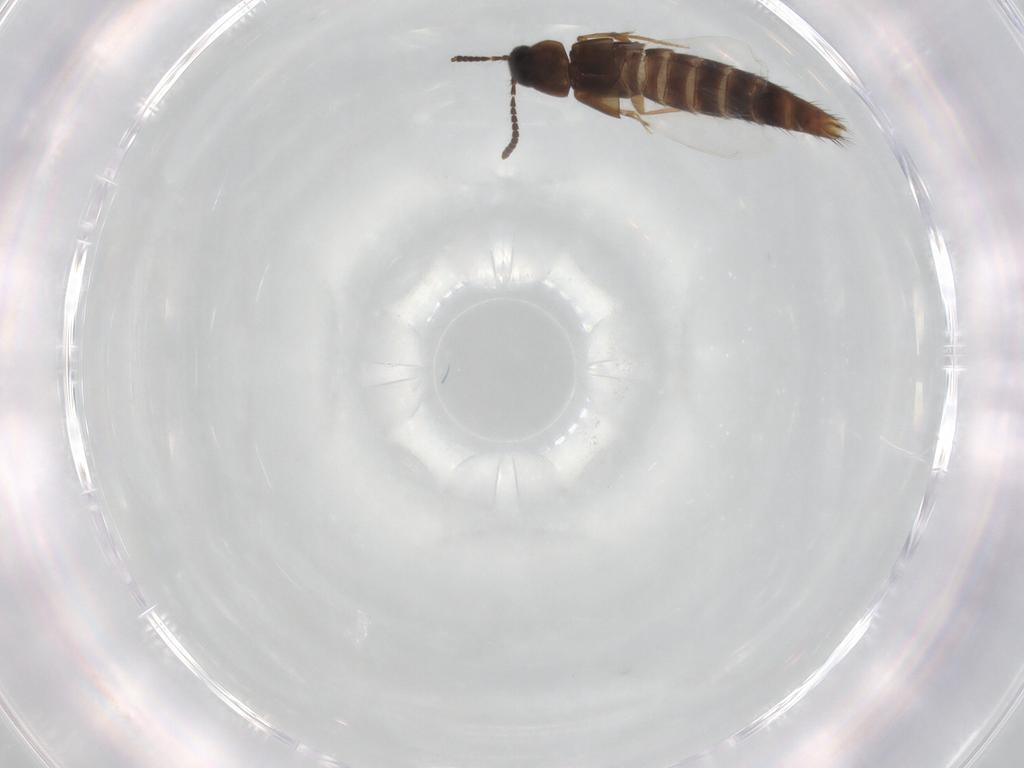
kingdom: Animalia
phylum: Arthropoda
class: Insecta
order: Coleoptera
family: Staphylinidae
